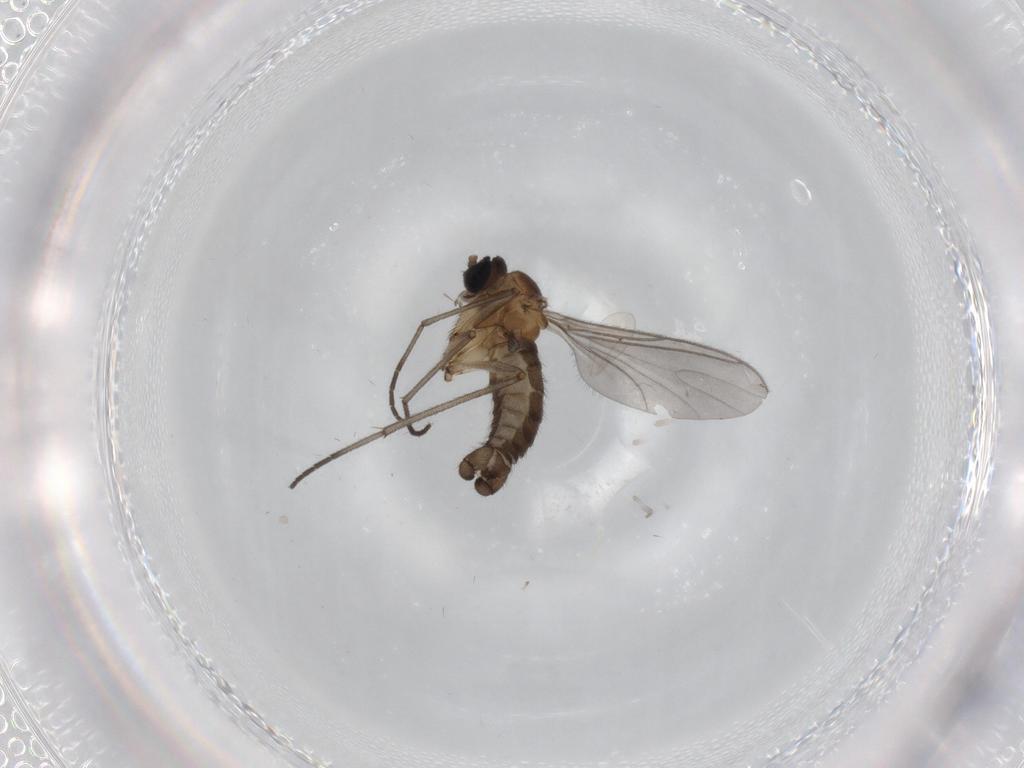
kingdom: Animalia
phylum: Arthropoda
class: Insecta
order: Diptera
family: Sciaridae
